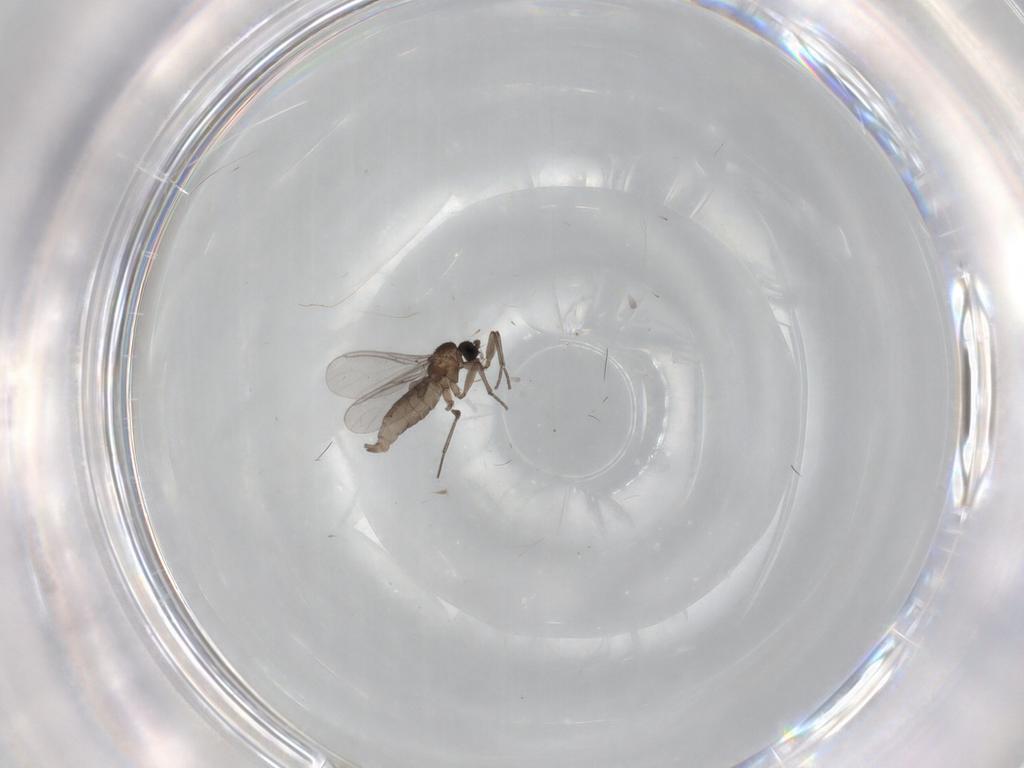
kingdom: Animalia
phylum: Arthropoda
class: Insecta
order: Diptera
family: Sciaridae
